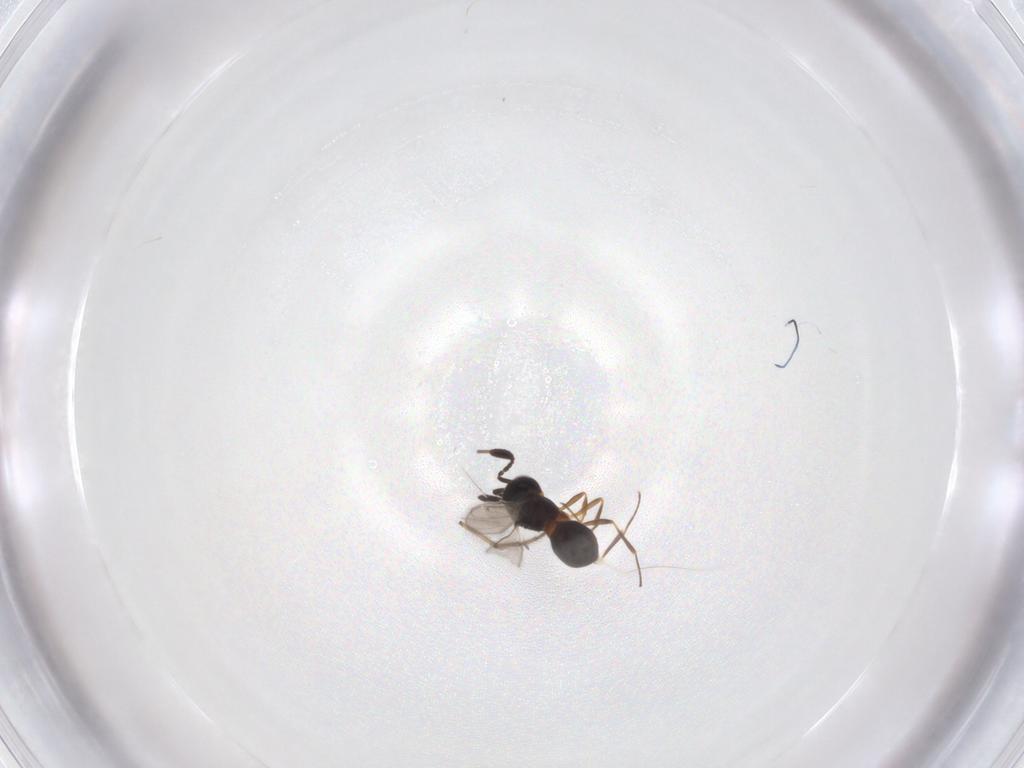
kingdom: Animalia
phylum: Arthropoda
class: Insecta
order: Hymenoptera
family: Scelionidae
